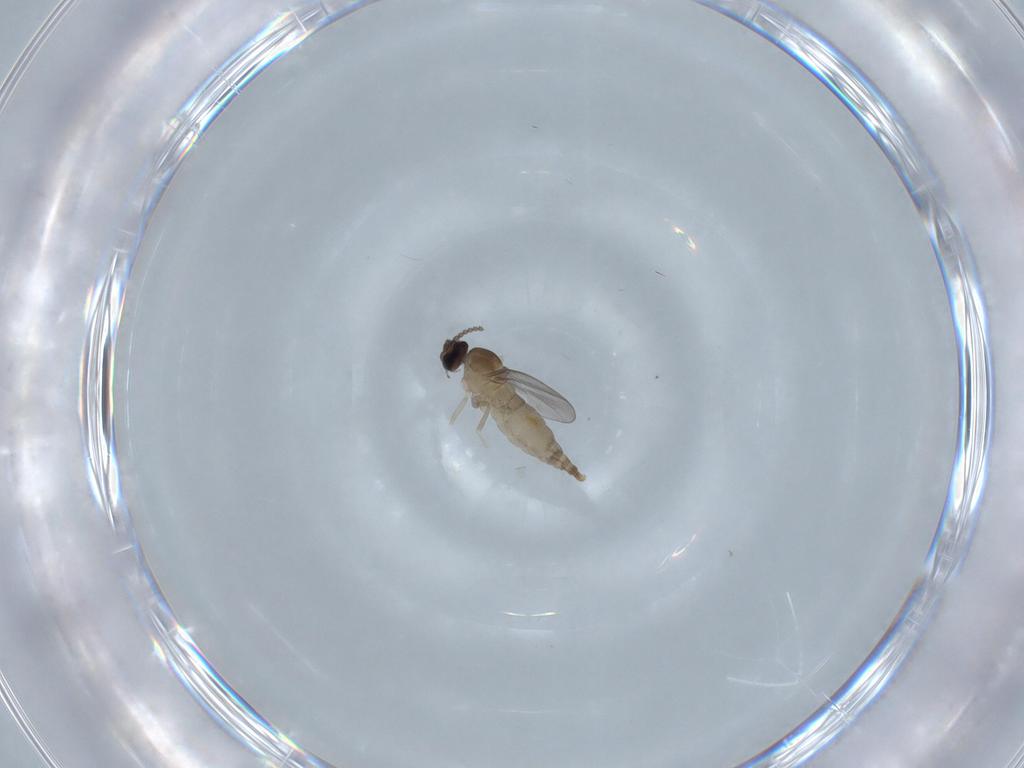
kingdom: Animalia
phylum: Arthropoda
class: Insecta
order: Diptera
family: Cecidomyiidae
